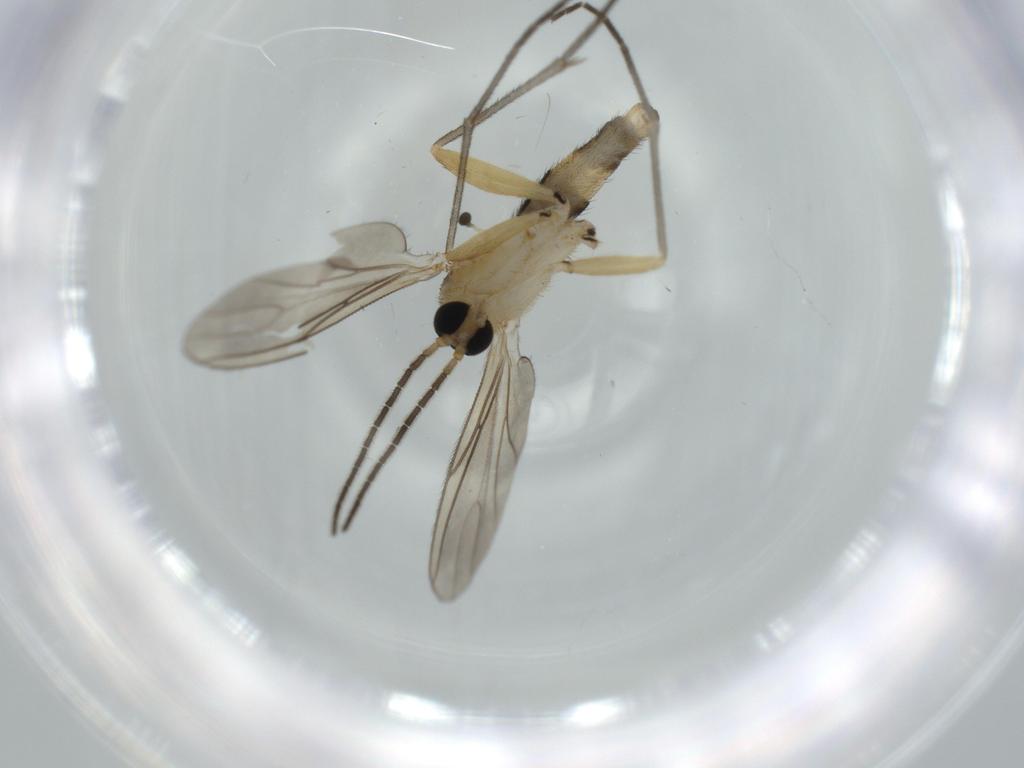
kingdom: Animalia
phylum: Arthropoda
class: Insecta
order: Diptera
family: Sciaridae
